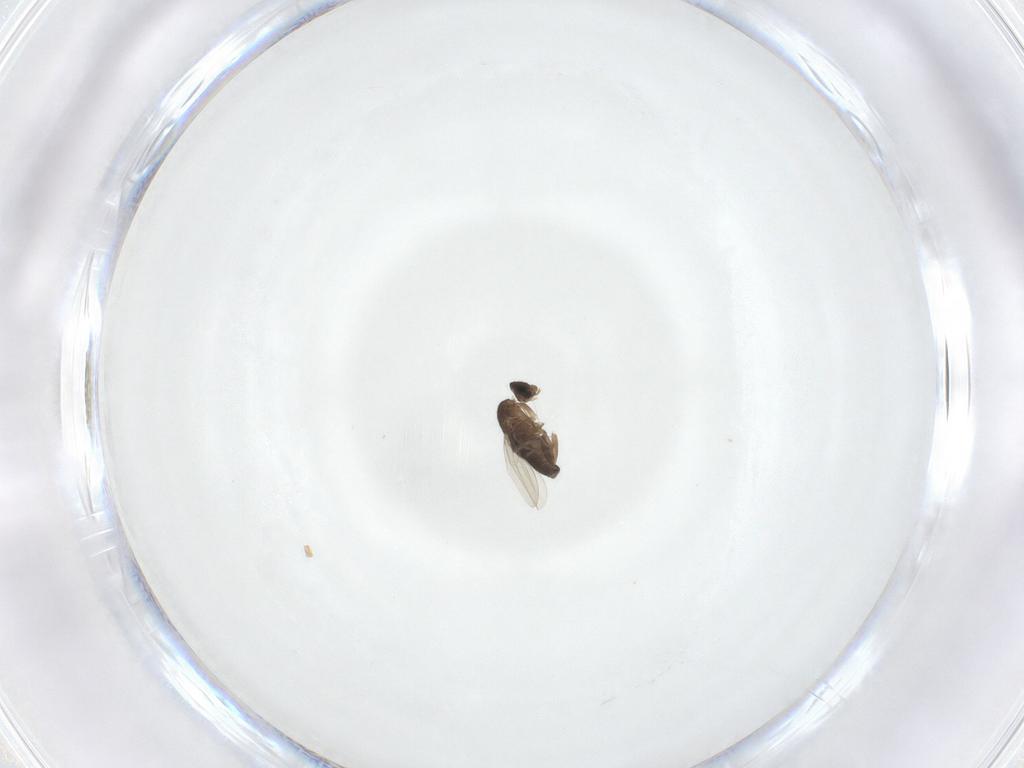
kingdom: Animalia
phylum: Arthropoda
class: Insecta
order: Diptera
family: Phoridae
